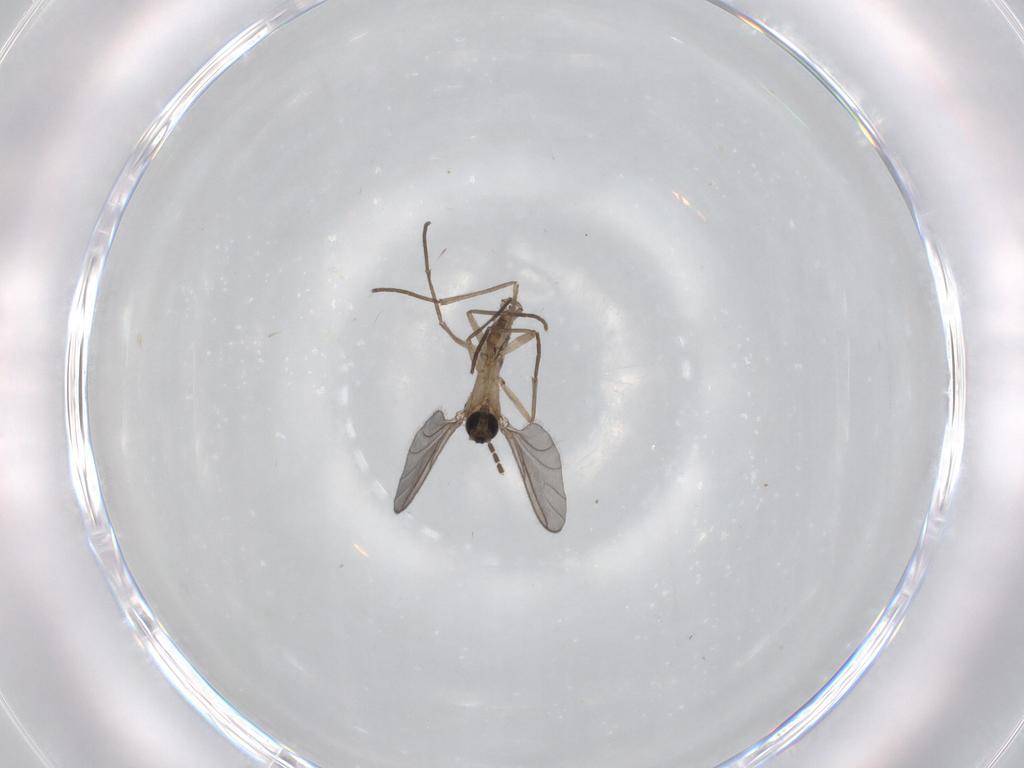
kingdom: Animalia
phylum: Arthropoda
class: Insecta
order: Diptera
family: Sciaridae
